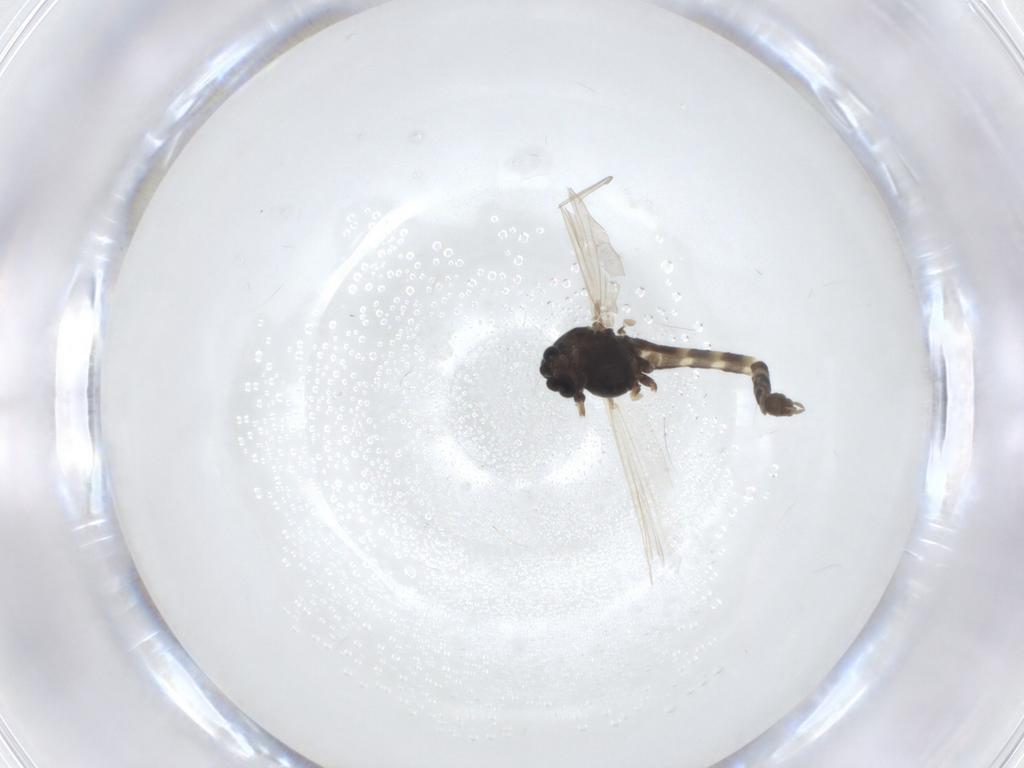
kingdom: Animalia
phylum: Arthropoda
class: Insecta
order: Diptera
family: Chironomidae
